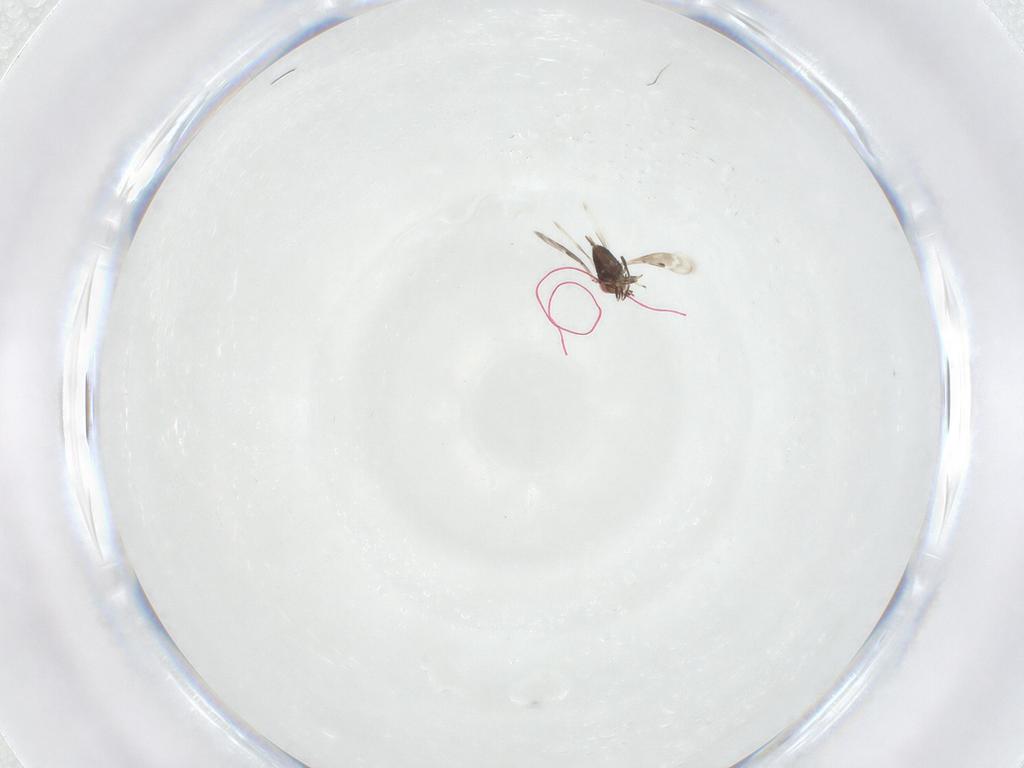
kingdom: Animalia
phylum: Arthropoda
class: Insecta
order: Hymenoptera
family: Azotidae
